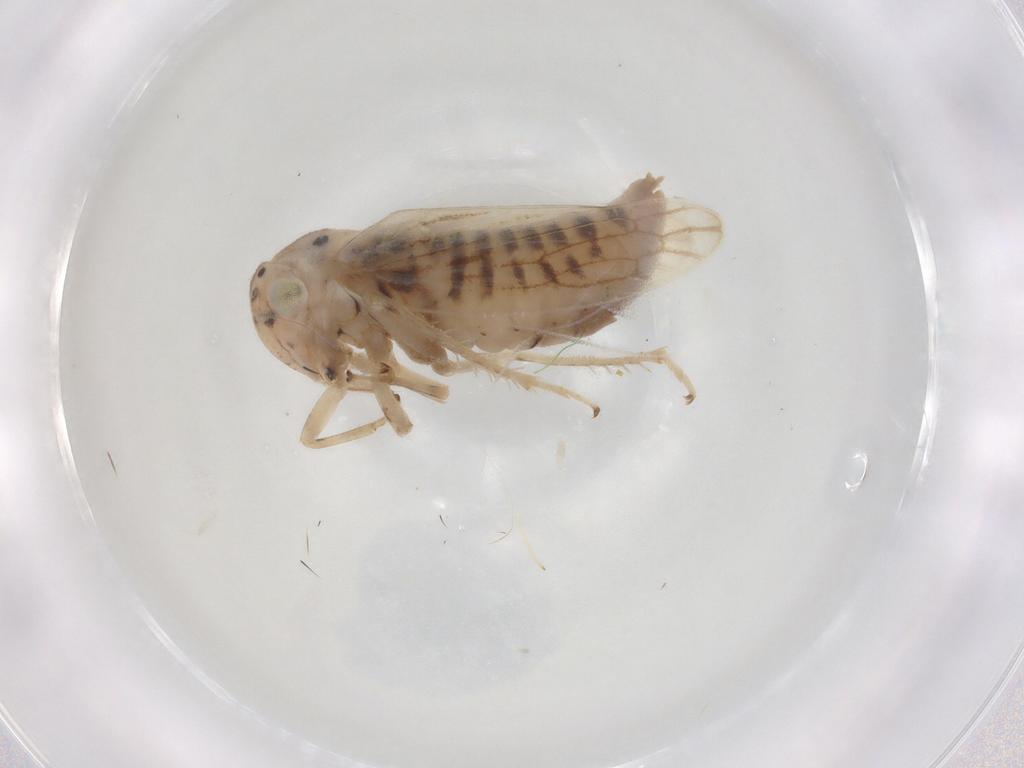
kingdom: Animalia
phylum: Arthropoda
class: Insecta
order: Hemiptera
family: Cicadellidae
